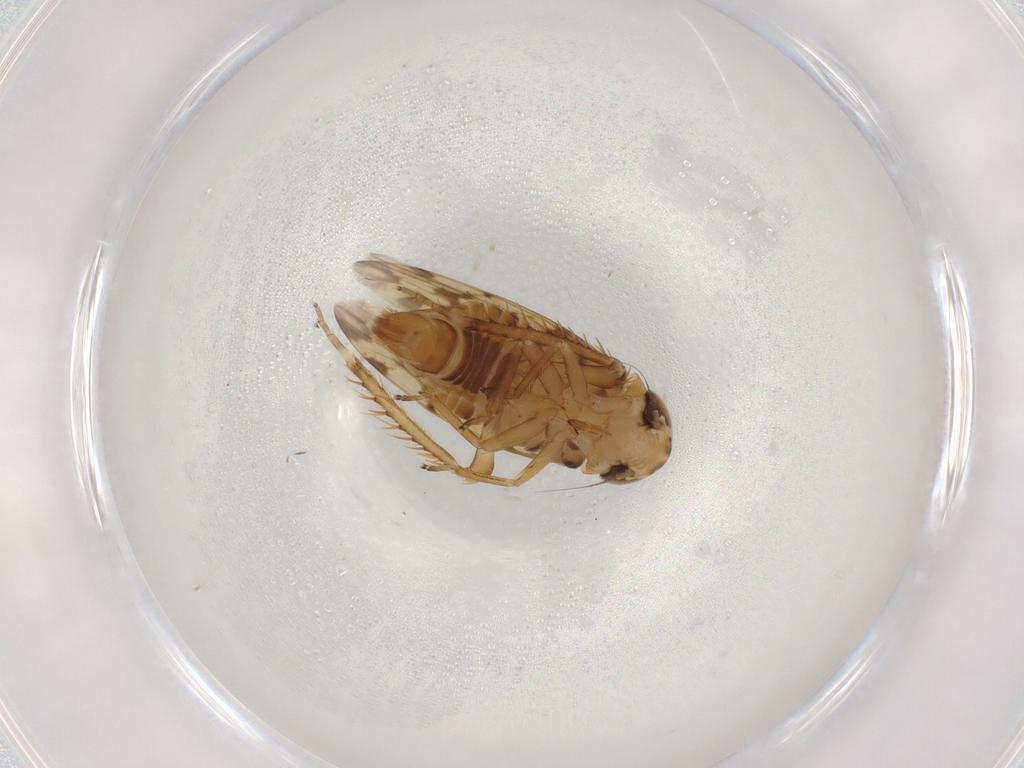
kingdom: Animalia
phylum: Arthropoda
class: Insecta
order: Hemiptera
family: Cicadellidae
